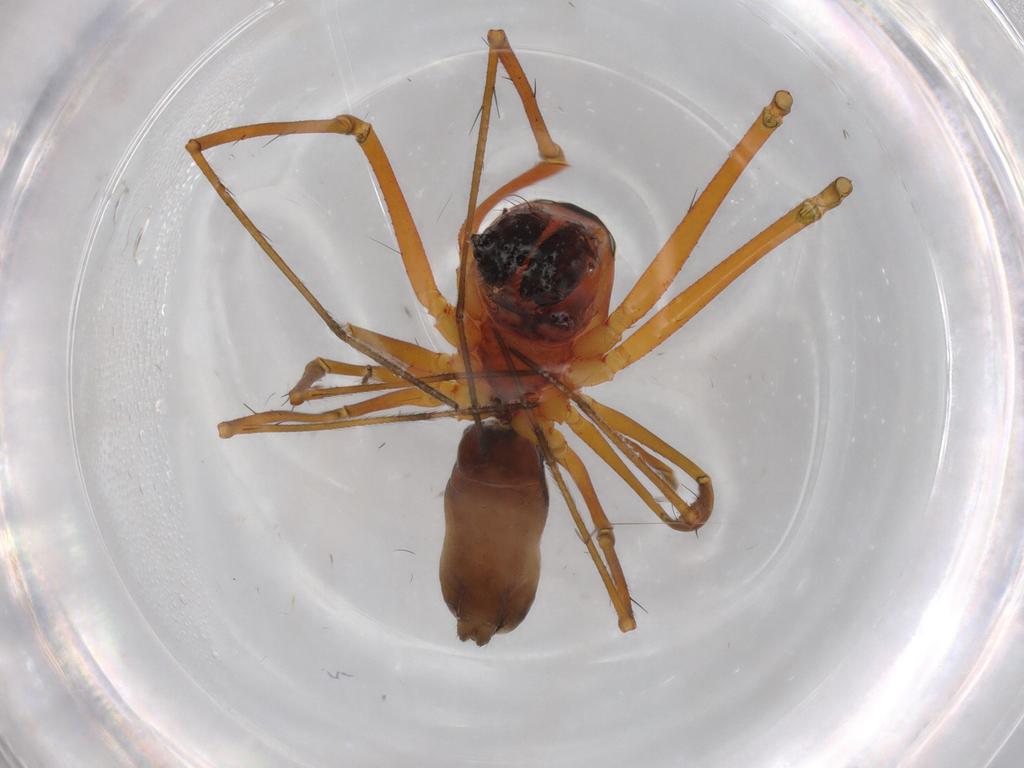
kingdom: Animalia
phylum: Arthropoda
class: Arachnida
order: Araneae
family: Linyphiidae
